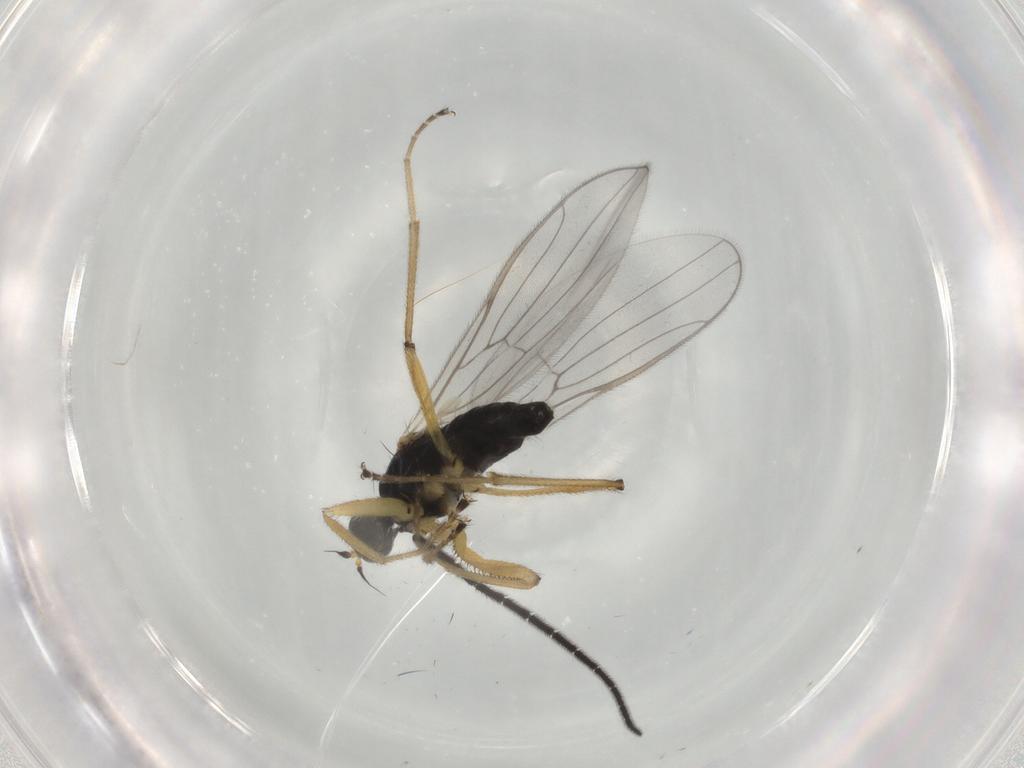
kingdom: Animalia
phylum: Arthropoda
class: Insecta
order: Diptera
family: Hybotidae
